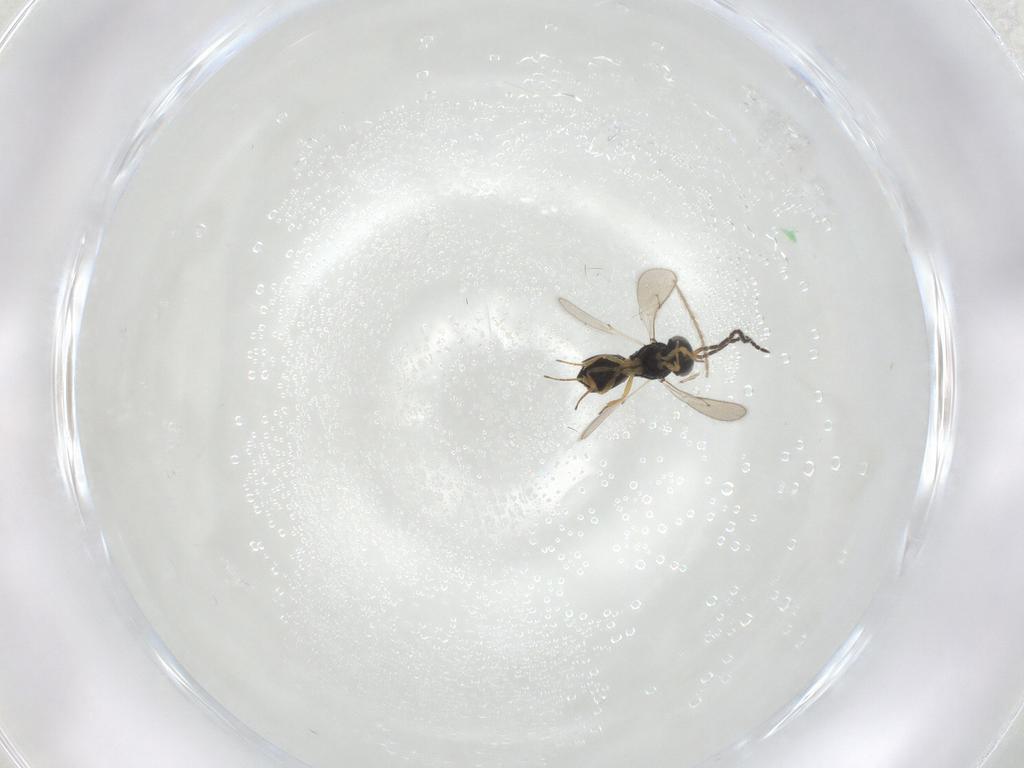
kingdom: Animalia
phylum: Arthropoda
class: Insecta
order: Hymenoptera
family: Scelionidae
